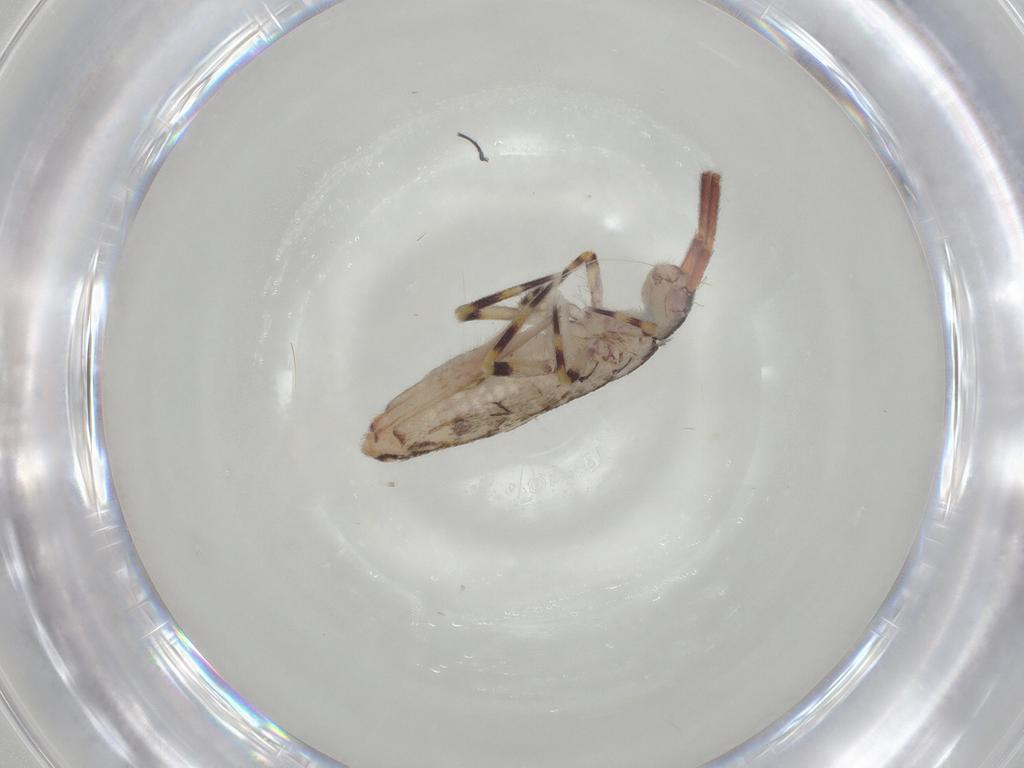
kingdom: Animalia
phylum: Arthropoda
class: Collembola
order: Entomobryomorpha
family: Entomobryidae
